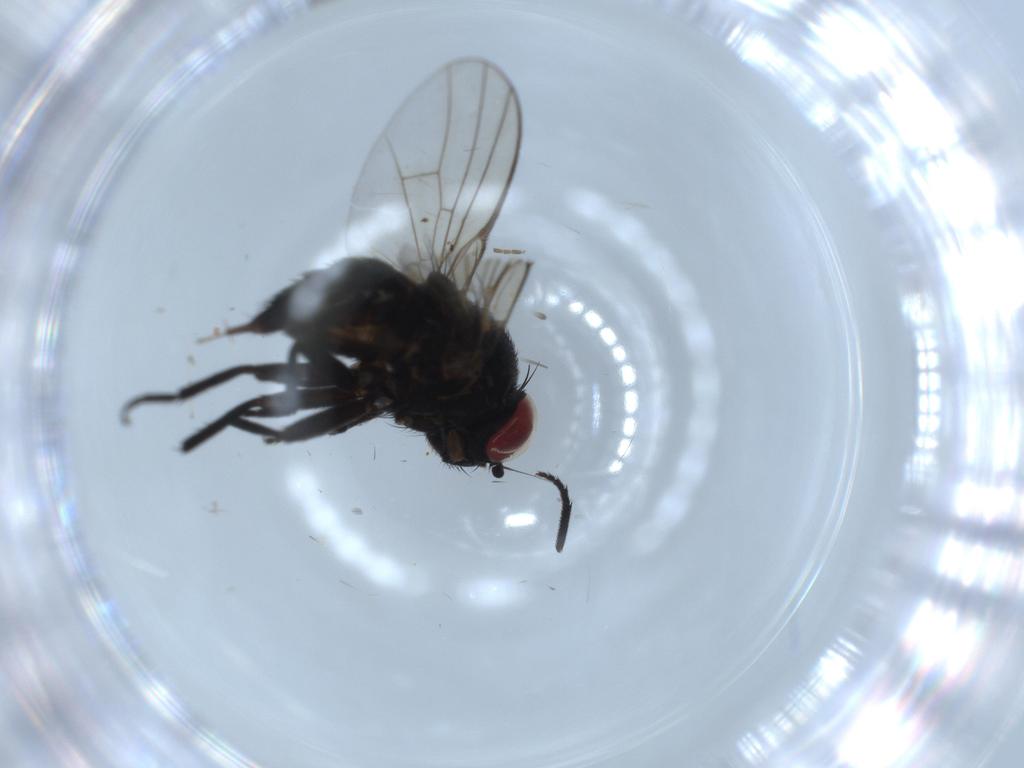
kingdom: Animalia
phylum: Arthropoda
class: Insecta
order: Diptera
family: Agromyzidae
